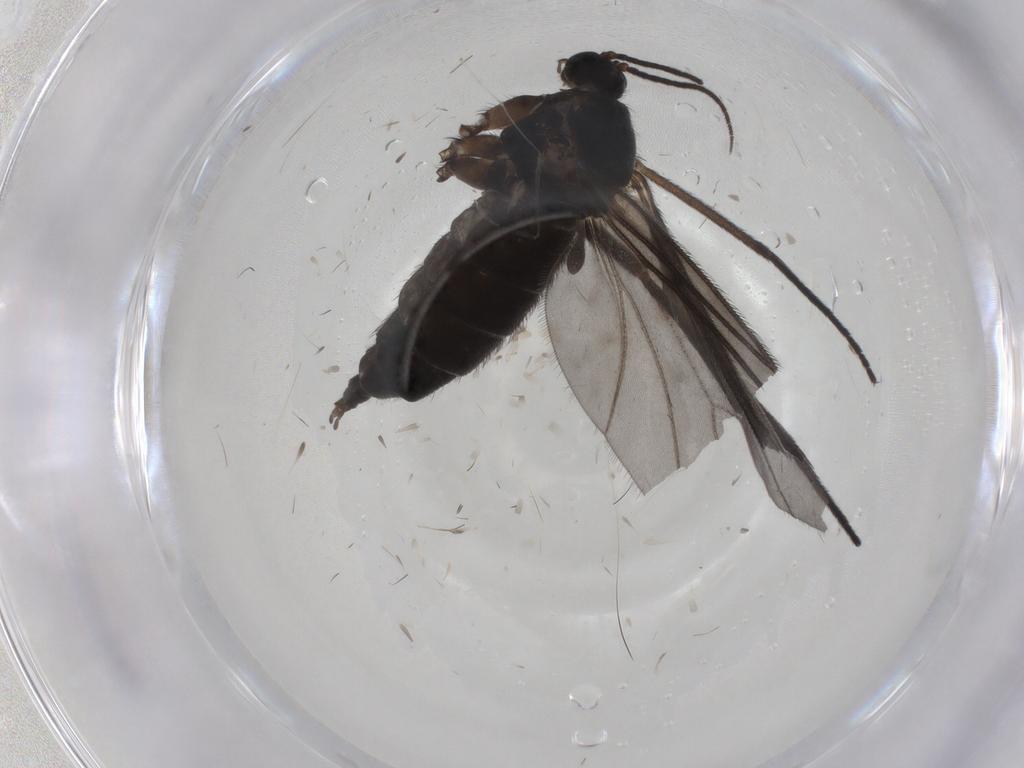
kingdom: Animalia
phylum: Arthropoda
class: Insecta
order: Diptera
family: Sciaridae
